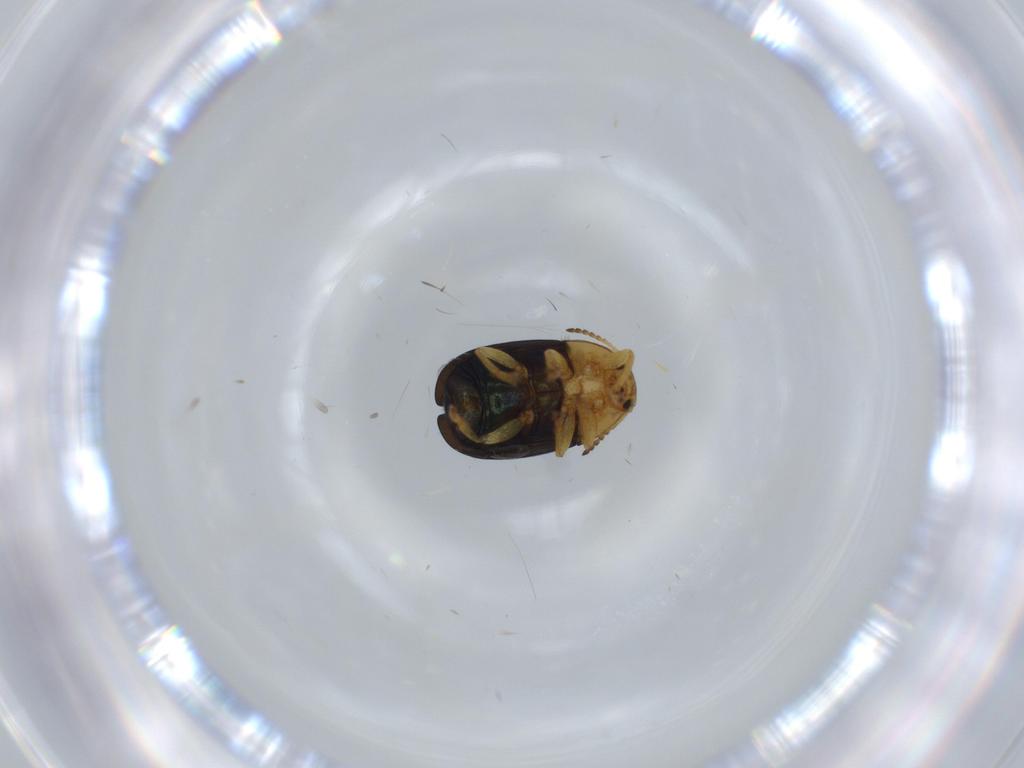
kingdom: Animalia
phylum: Arthropoda
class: Insecta
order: Coleoptera
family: Chrysomelidae
